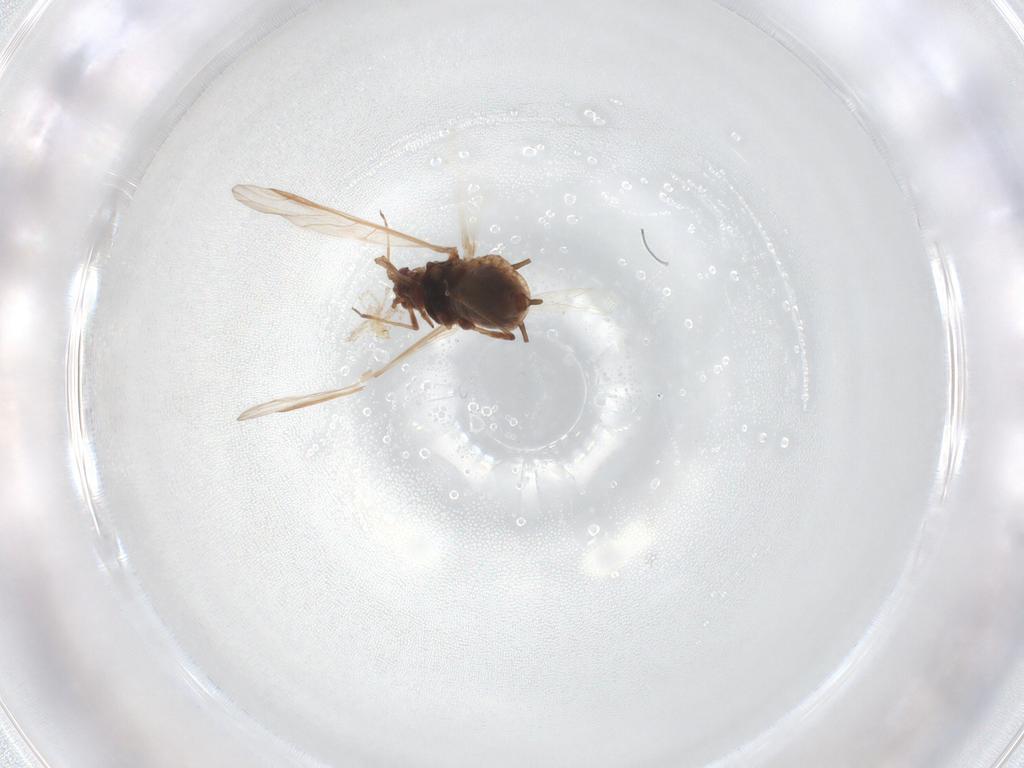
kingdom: Animalia
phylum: Arthropoda
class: Insecta
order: Hemiptera
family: Aphididae
